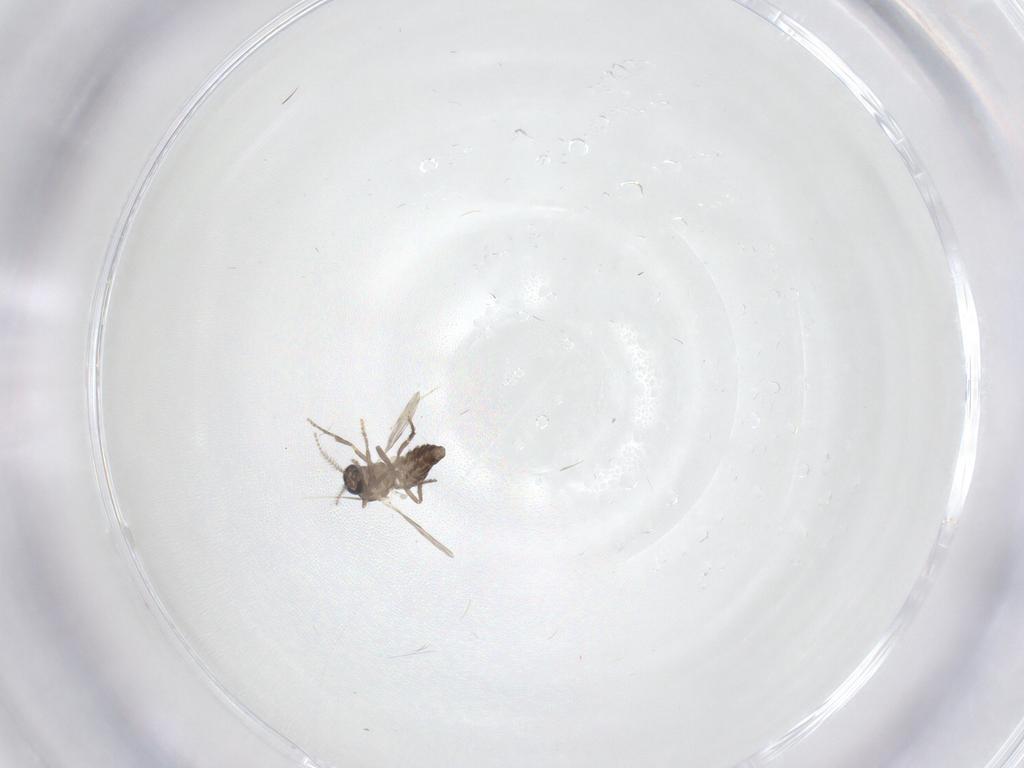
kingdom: Animalia
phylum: Arthropoda
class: Insecta
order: Diptera
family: Ceratopogonidae
